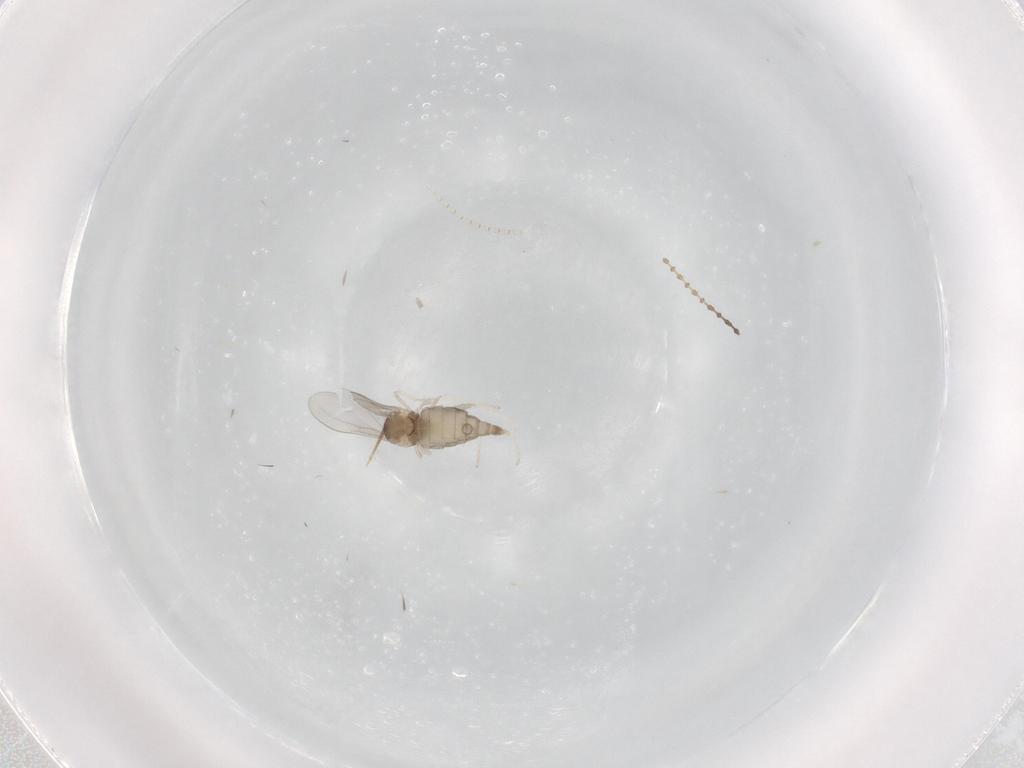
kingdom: Animalia
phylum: Arthropoda
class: Insecta
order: Diptera
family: Cecidomyiidae
